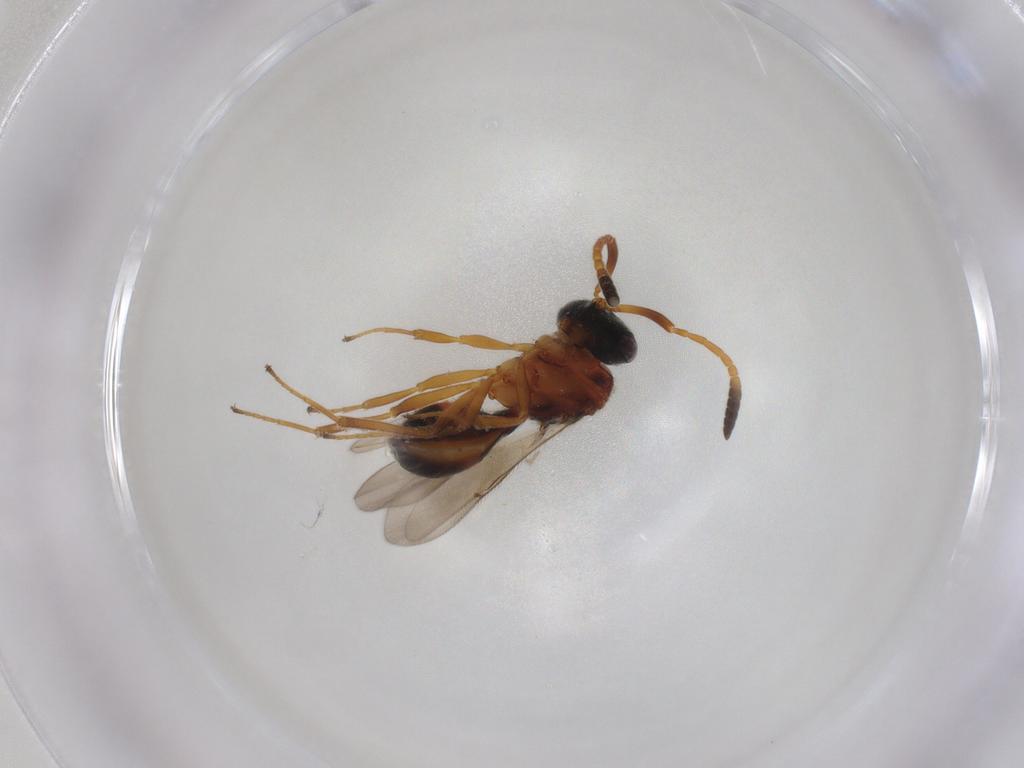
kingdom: Animalia
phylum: Arthropoda
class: Insecta
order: Hymenoptera
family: Scelionidae
